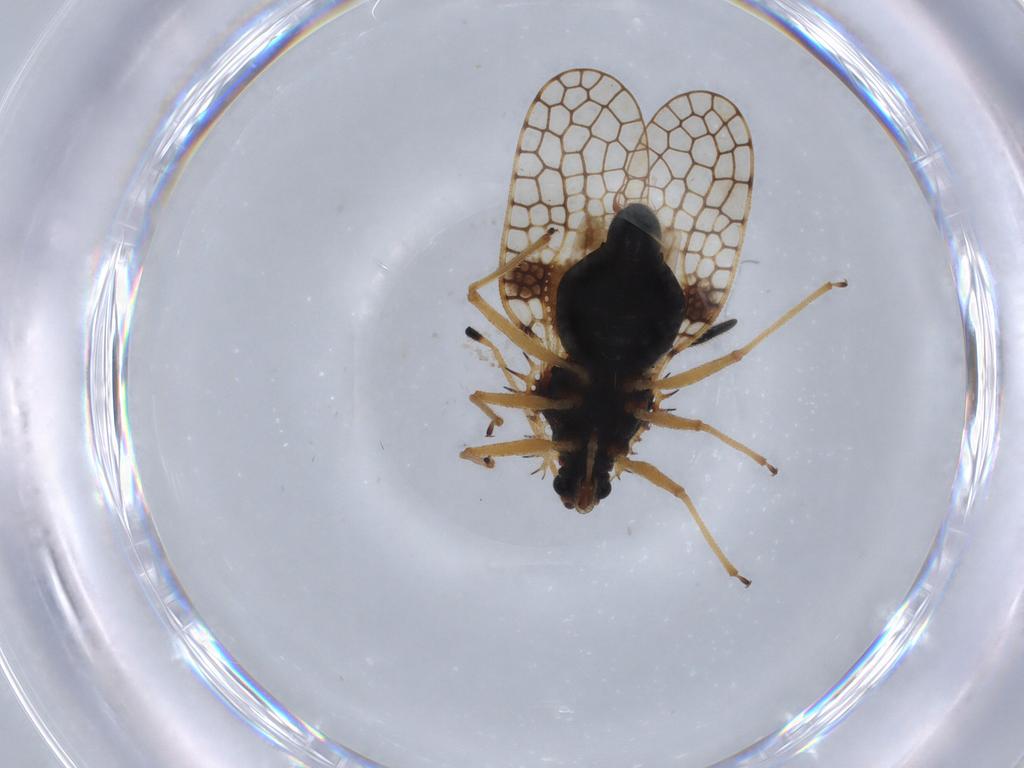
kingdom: Animalia
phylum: Arthropoda
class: Insecta
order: Hemiptera
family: Tingidae
